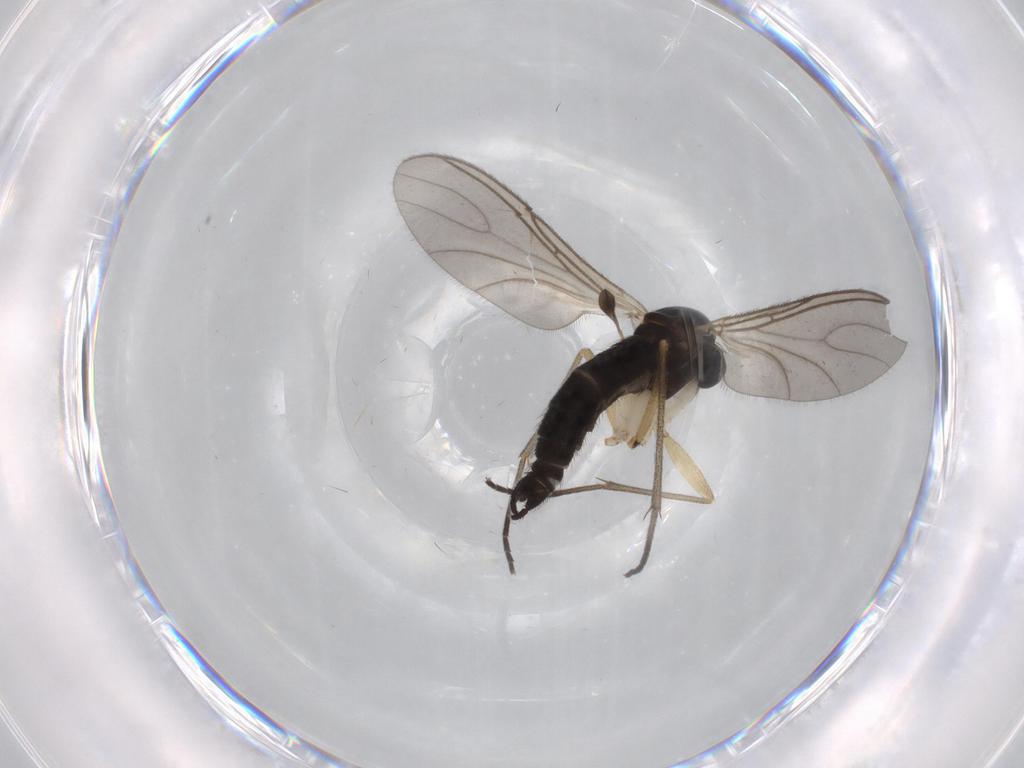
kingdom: Animalia
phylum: Arthropoda
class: Insecta
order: Diptera
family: Sciaridae
